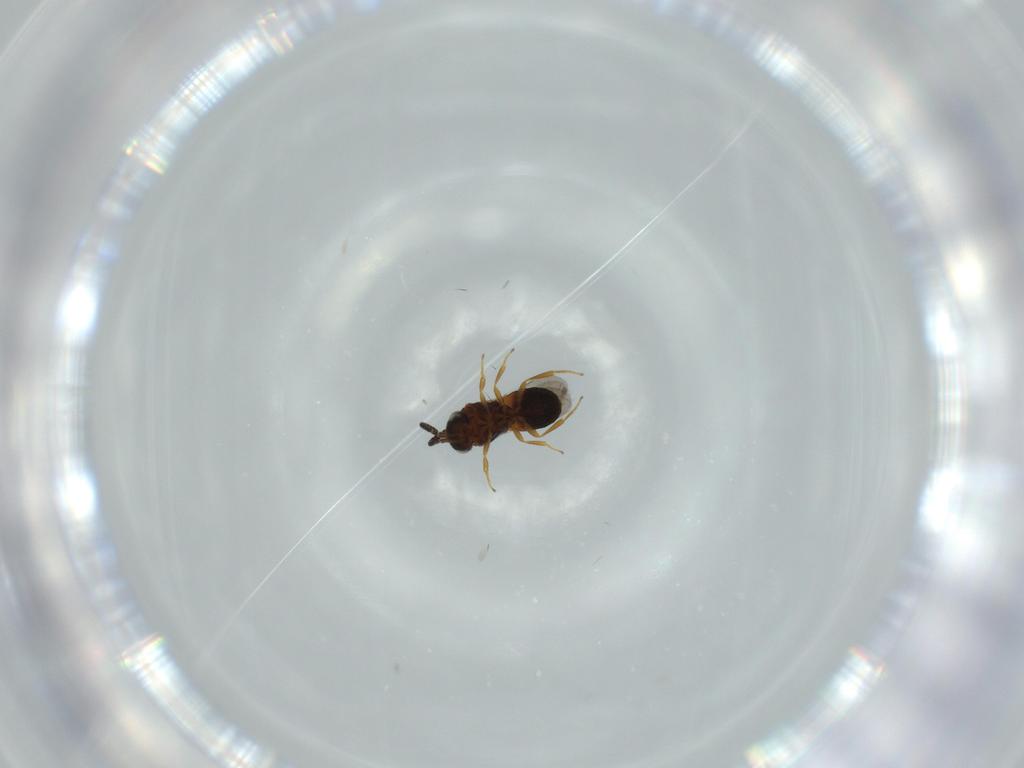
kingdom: Animalia
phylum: Arthropoda
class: Insecta
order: Hymenoptera
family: Scelionidae
